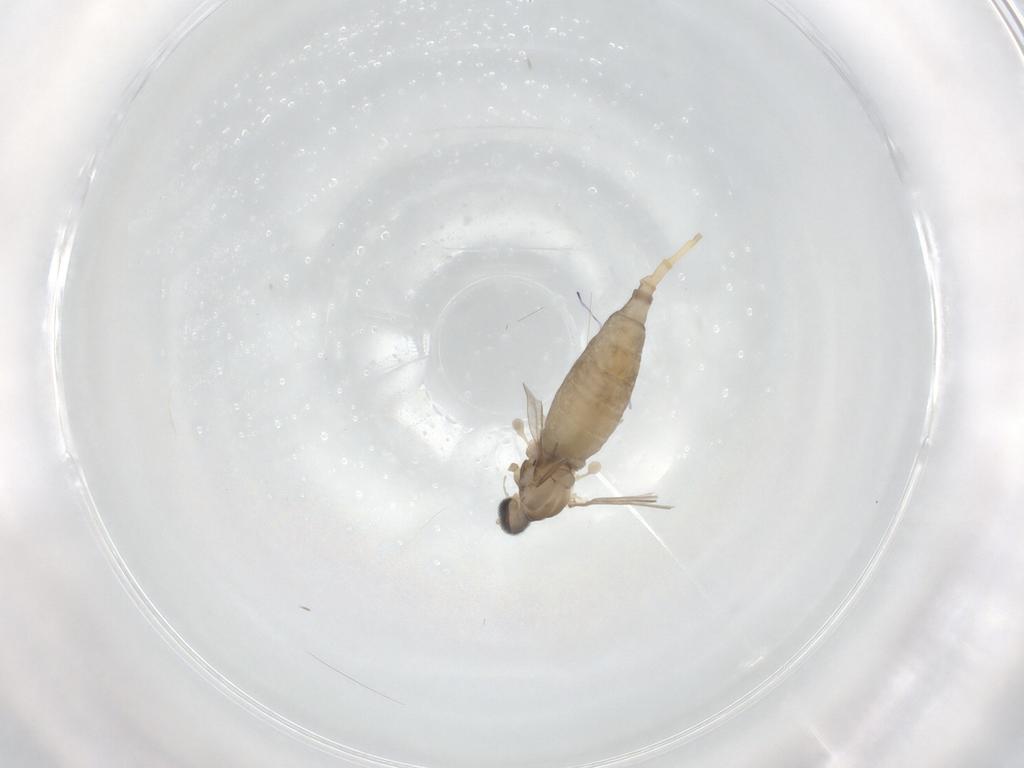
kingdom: Animalia
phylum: Arthropoda
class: Insecta
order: Diptera
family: Cecidomyiidae
